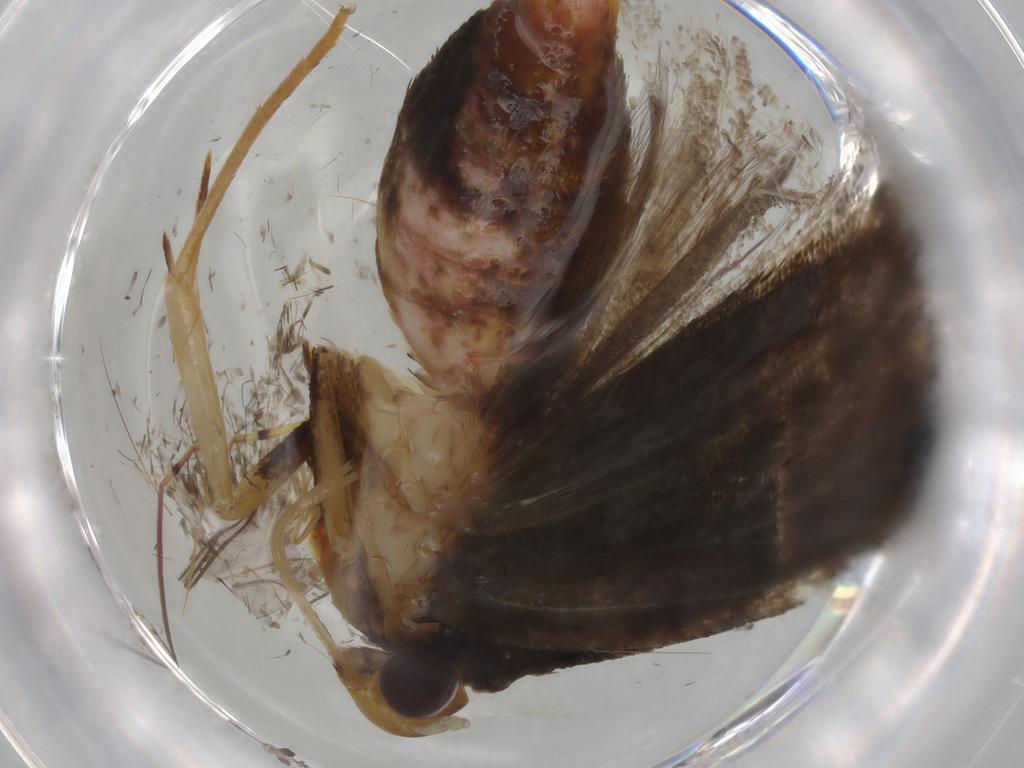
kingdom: Animalia
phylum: Arthropoda
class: Insecta
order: Lepidoptera
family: Lecithoceridae
